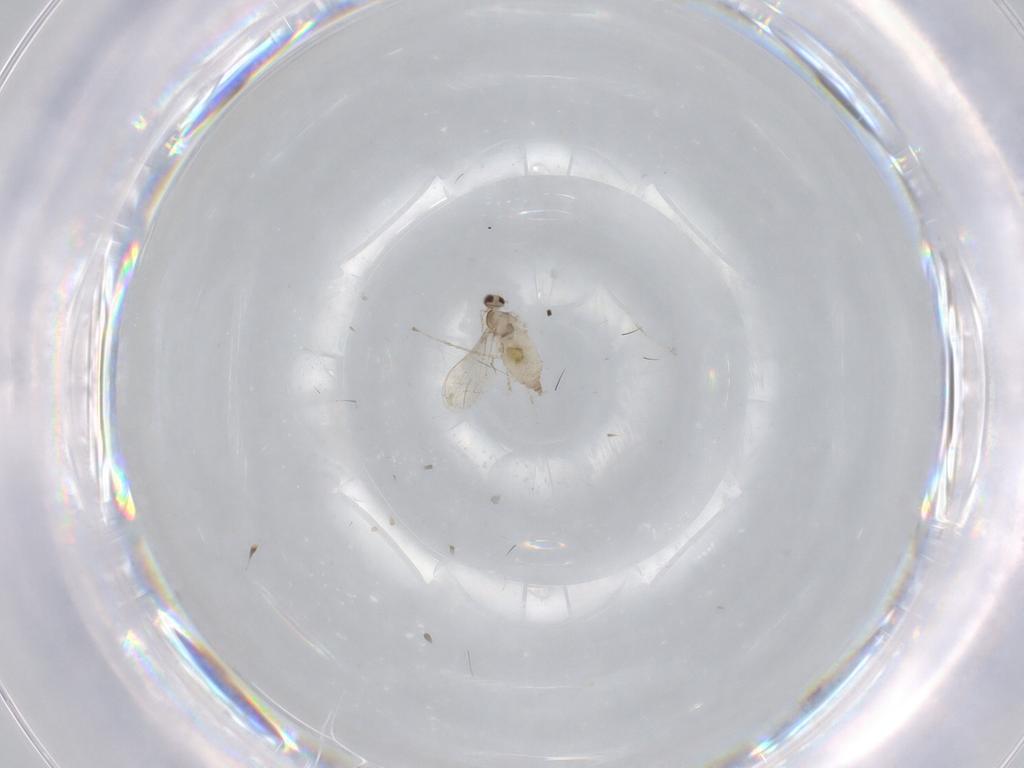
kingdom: Animalia
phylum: Arthropoda
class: Insecta
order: Diptera
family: Cecidomyiidae
